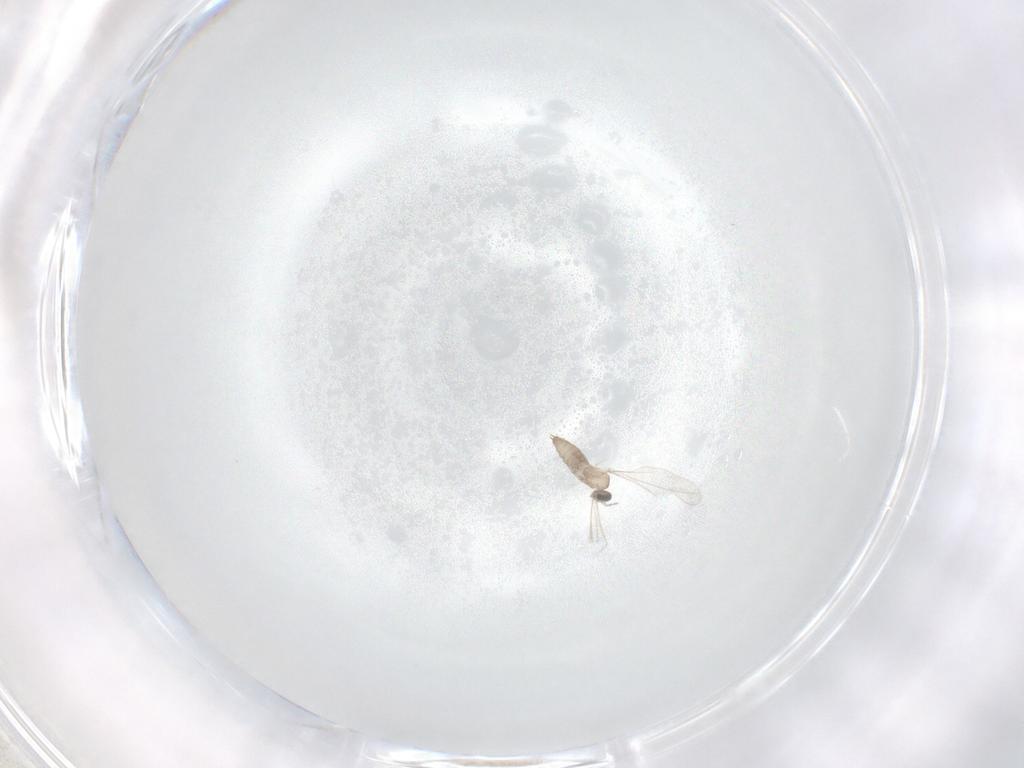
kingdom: Animalia
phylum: Arthropoda
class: Insecta
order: Diptera
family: Cecidomyiidae
